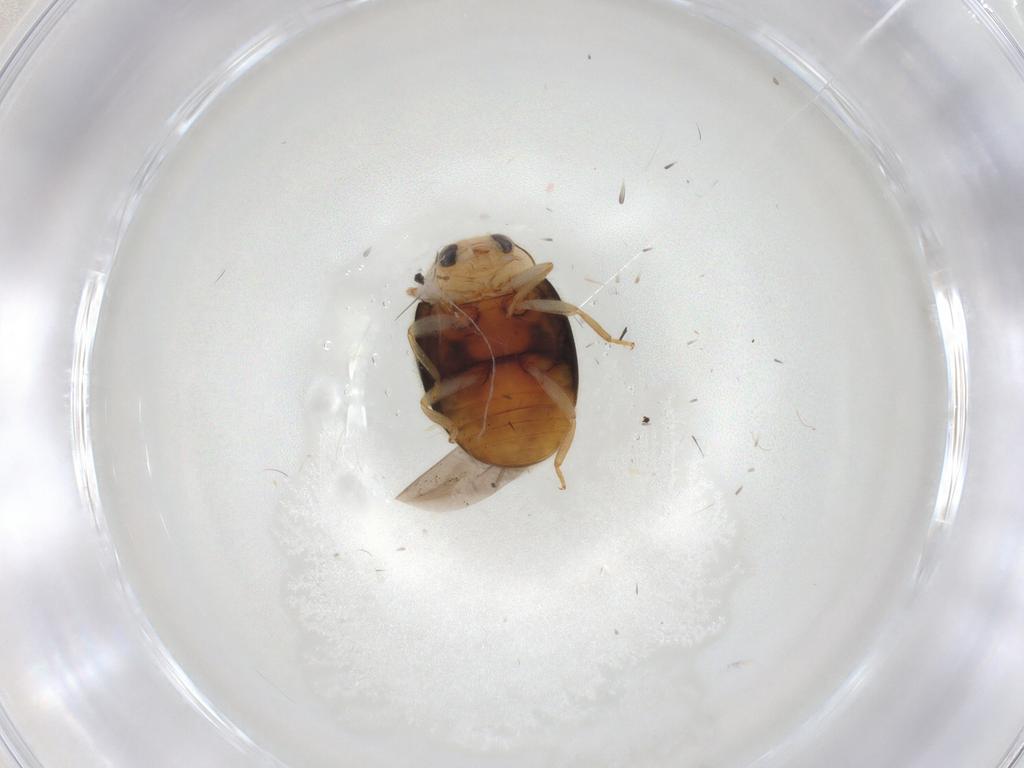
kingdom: Animalia
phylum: Arthropoda
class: Insecta
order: Coleoptera
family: Coccinellidae
